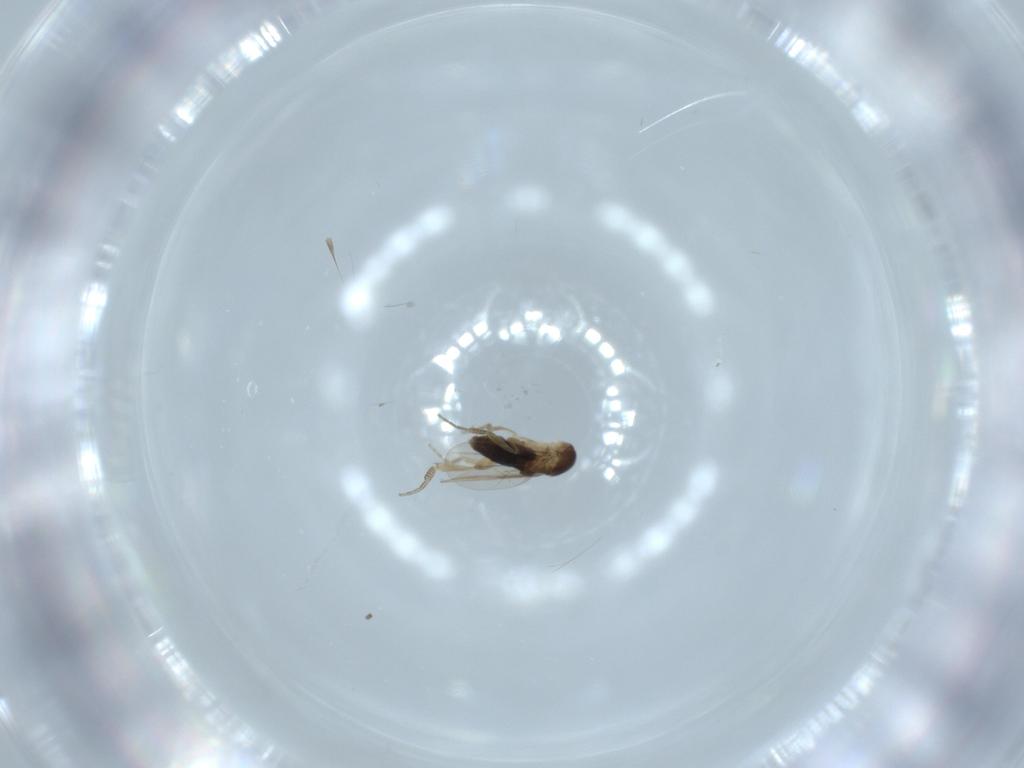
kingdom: Animalia
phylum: Arthropoda
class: Insecta
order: Diptera
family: Phoridae
